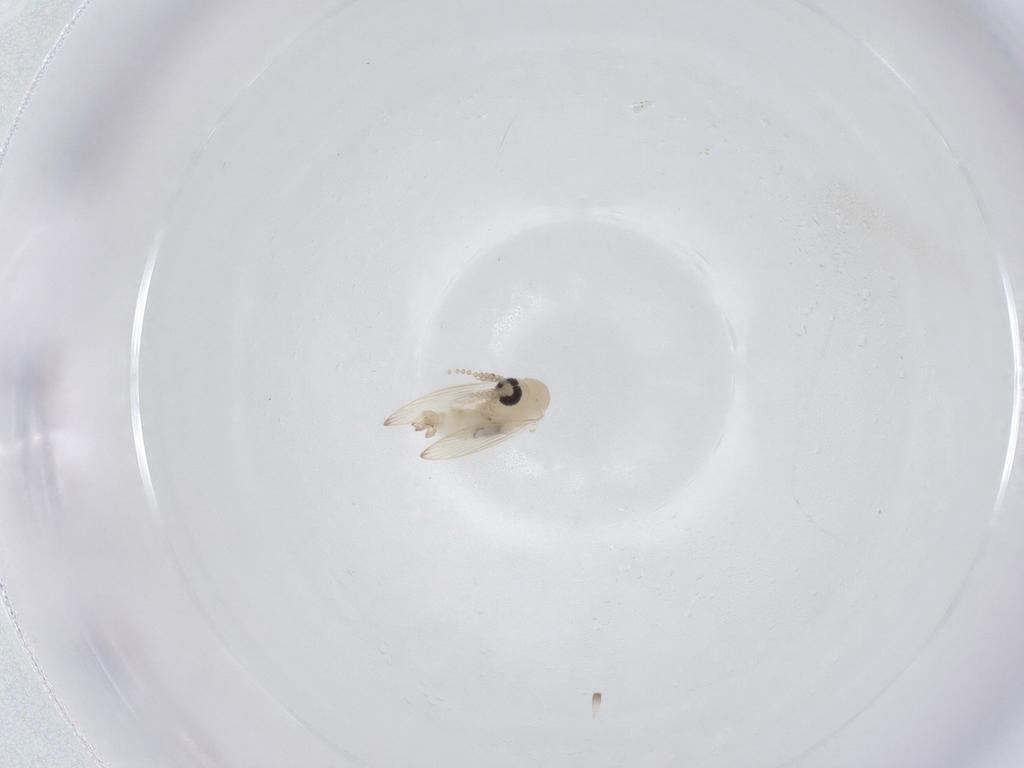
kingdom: Animalia
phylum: Arthropoda
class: Insecta
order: Diptera
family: Psychodidae
